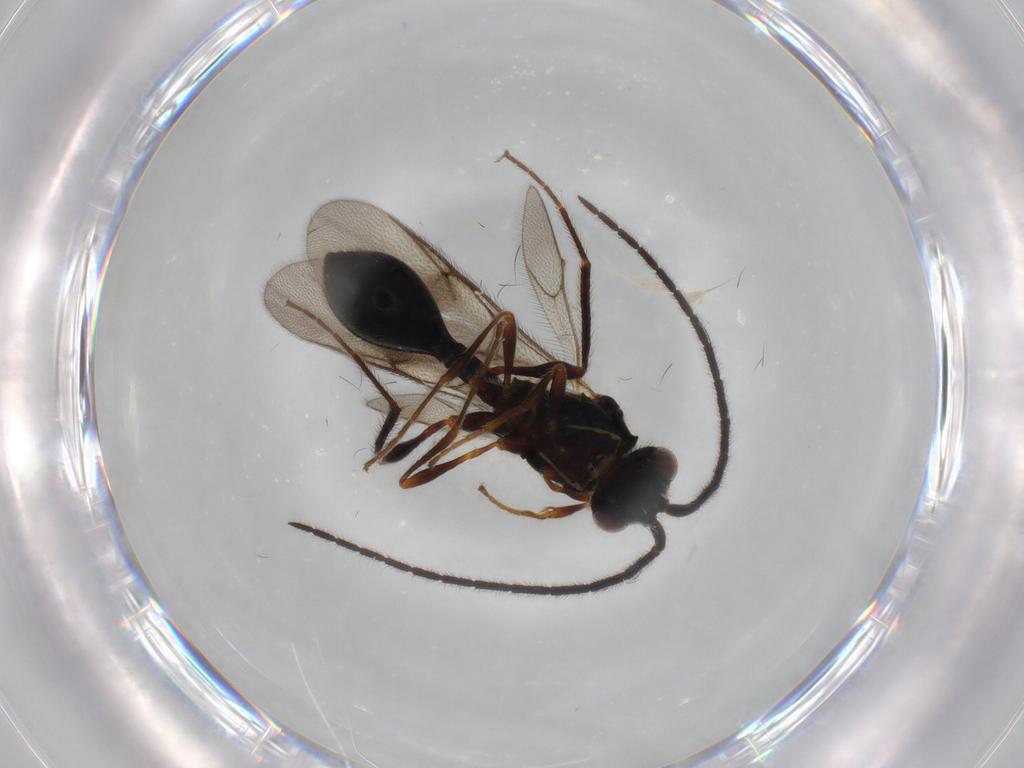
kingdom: Animalia
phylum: Arthropoda
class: Insecta
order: Hymenoptera
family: Diapriidae
